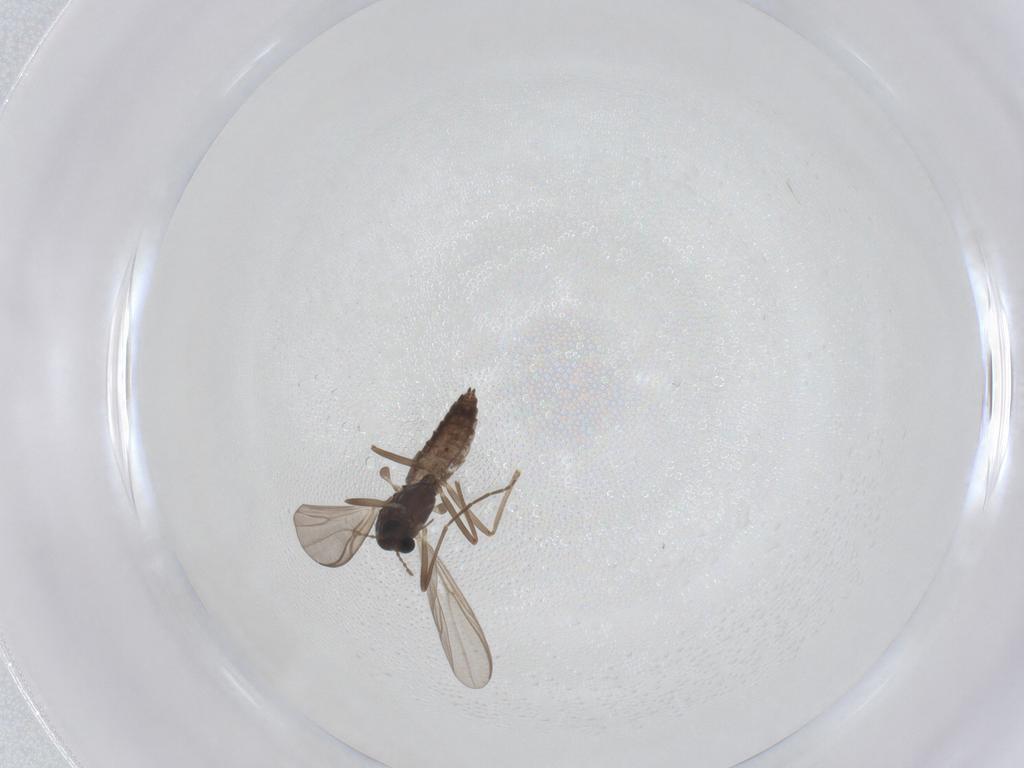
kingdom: Animalia
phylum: Arthropoda
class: Insecta
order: Diptera
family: Chironomidae
